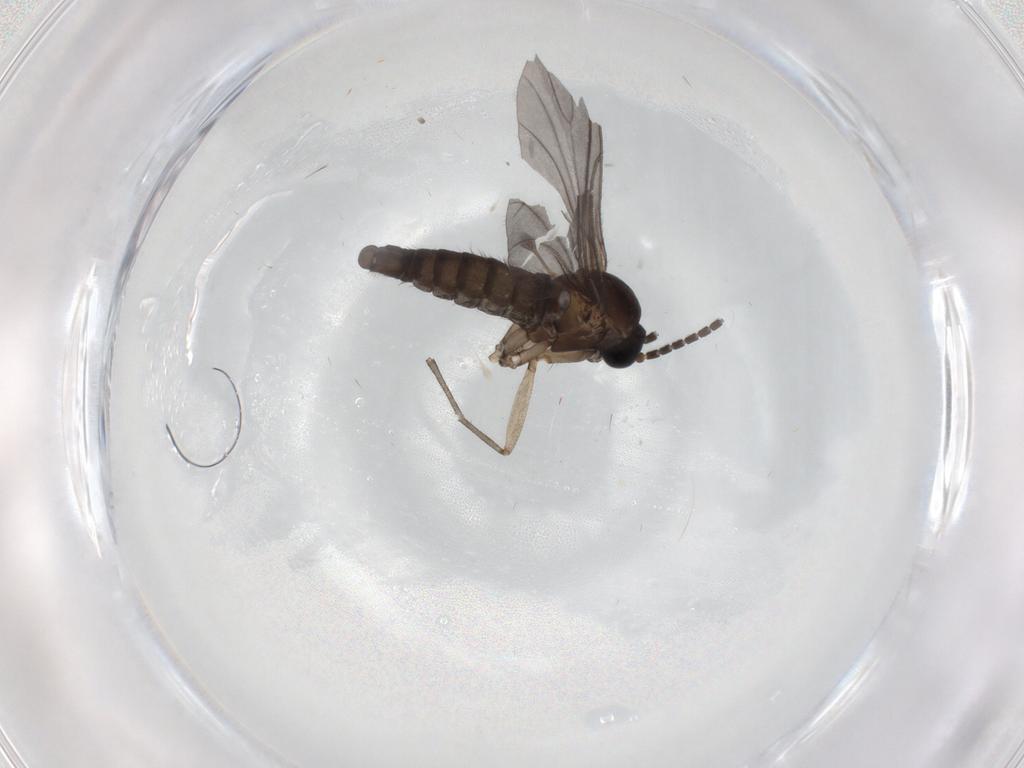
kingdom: Animalia
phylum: Arthropoda
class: Insecta
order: Diptera
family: Sciaridae
